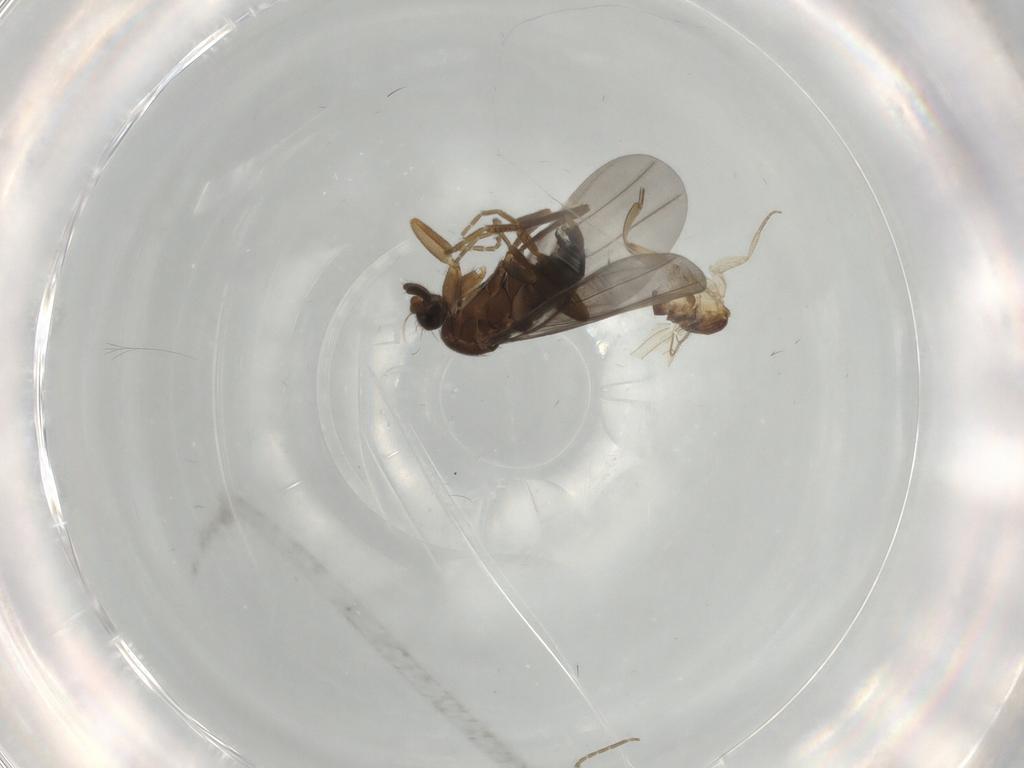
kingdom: Animalia
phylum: Arthropoda
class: Insecta
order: Diptera
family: Phoridae
